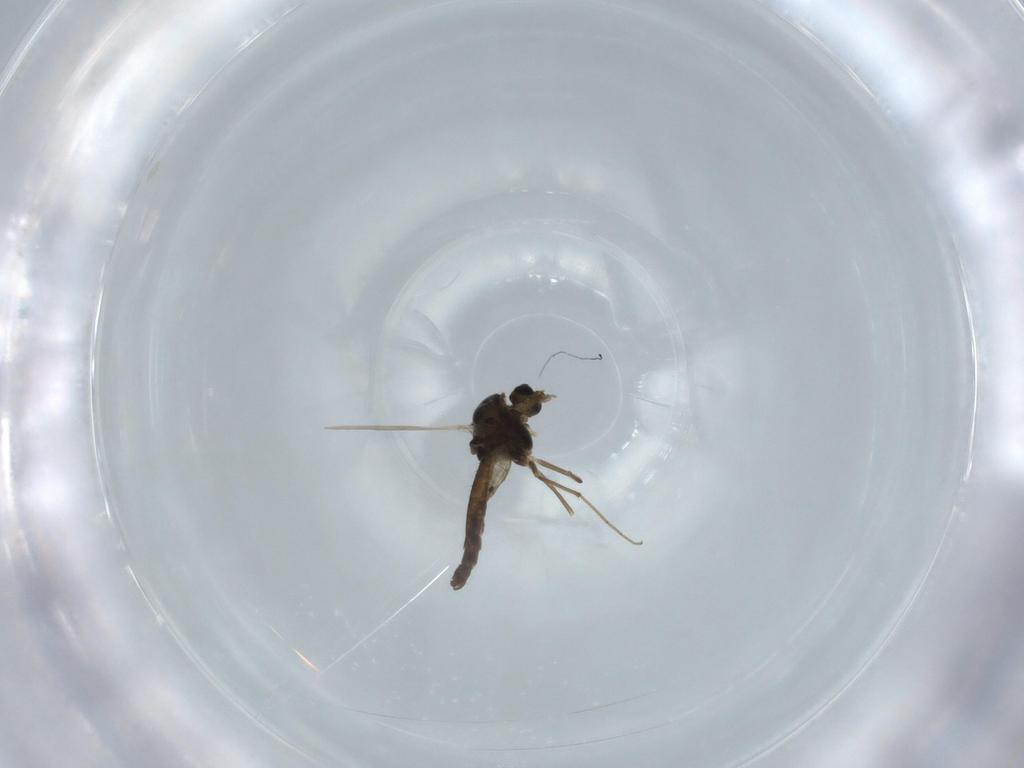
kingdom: Animalia
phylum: Arthropoda
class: Insecta
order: Diptera
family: Chironomidae
